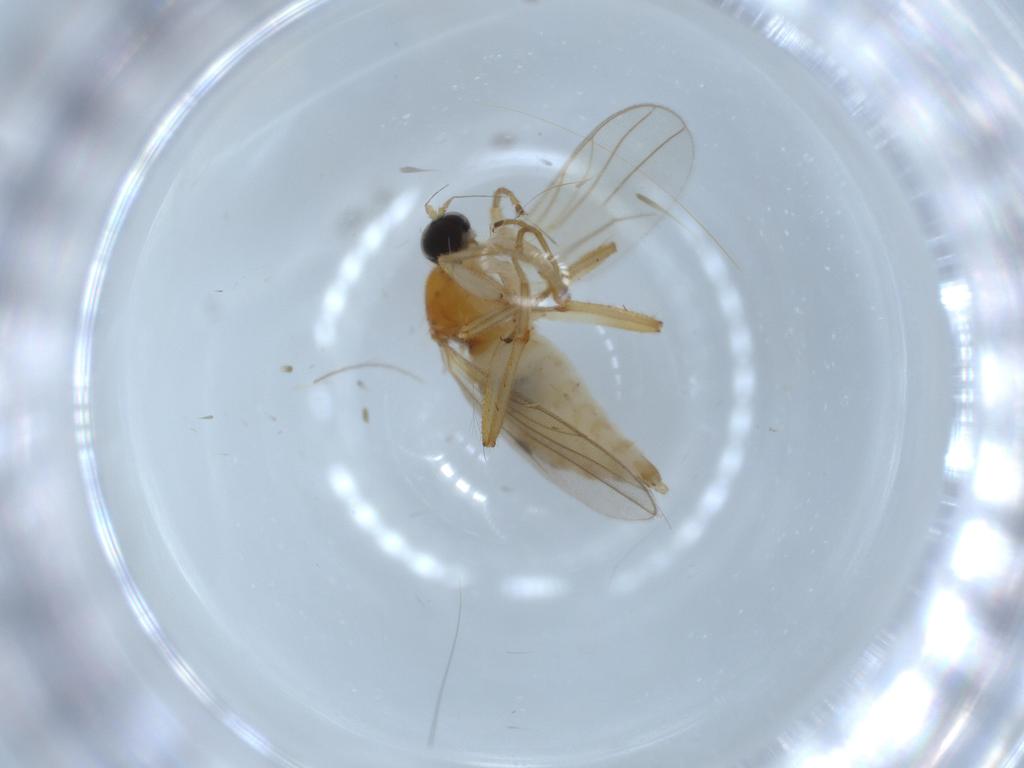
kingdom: Animalia
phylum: Arthropoda
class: Insecta
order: Diptera
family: Hybotidae
